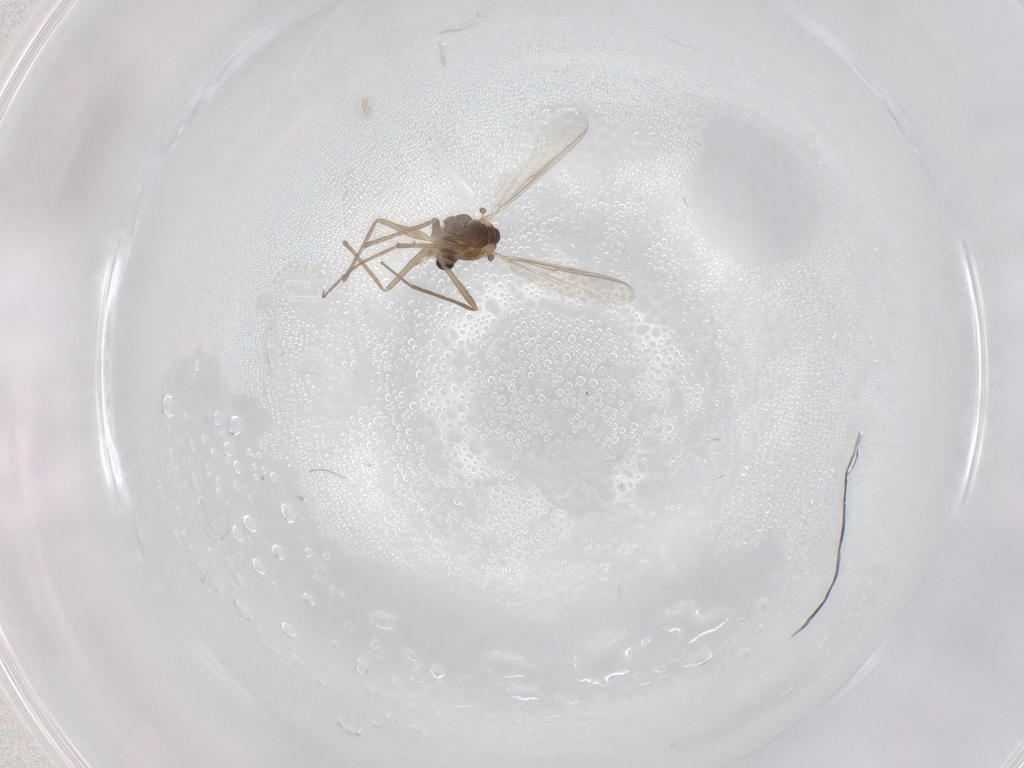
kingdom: Animalia
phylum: Arthropoda
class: Insecta
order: Diptera
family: Chironomidae
